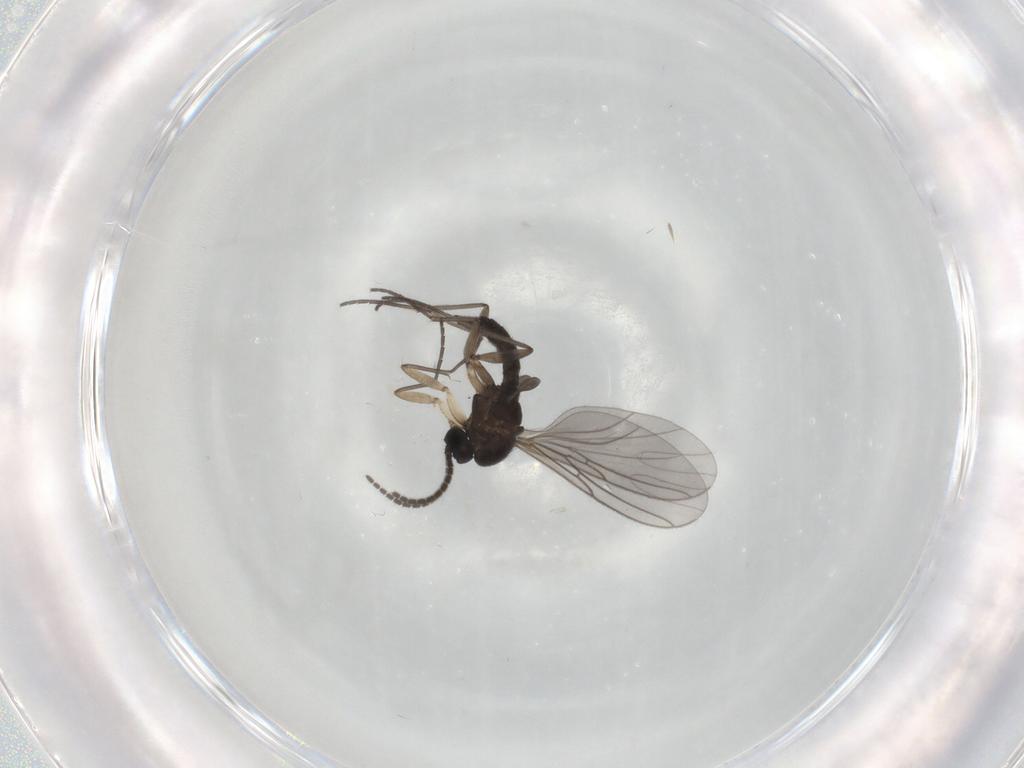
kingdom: Animalia
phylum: Arthropoda
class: Insecta
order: Diptera
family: Sciaridae
